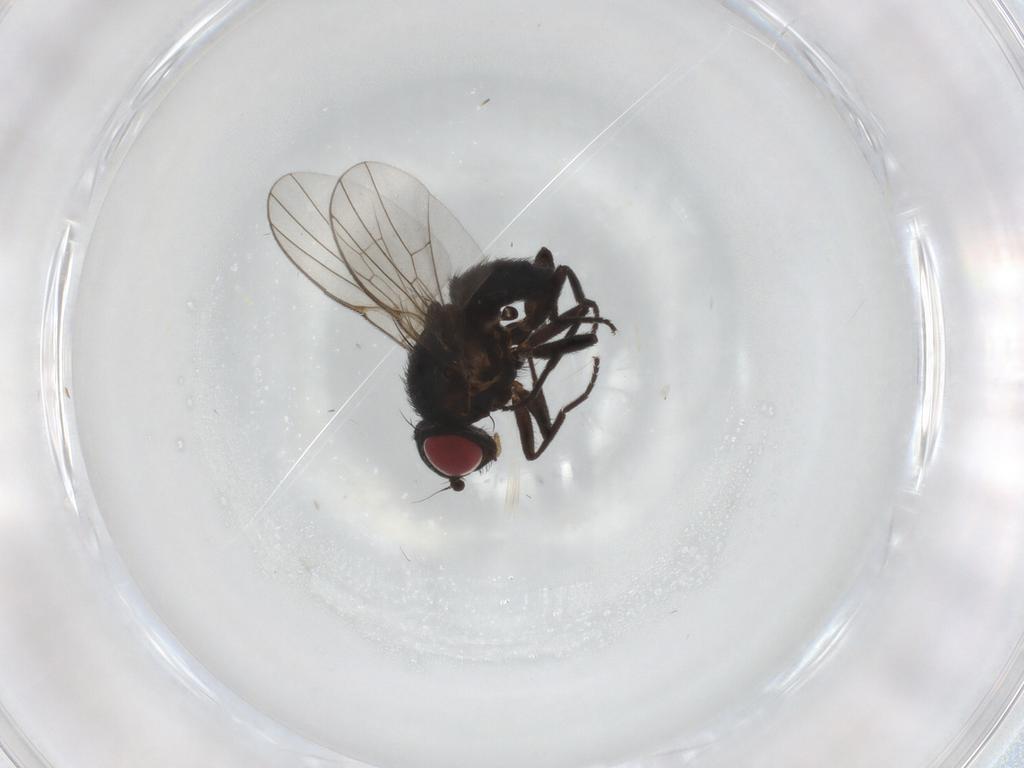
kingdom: Animalia
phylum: Arthropoda
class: Insecta
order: Diptera
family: Agromyzidae
